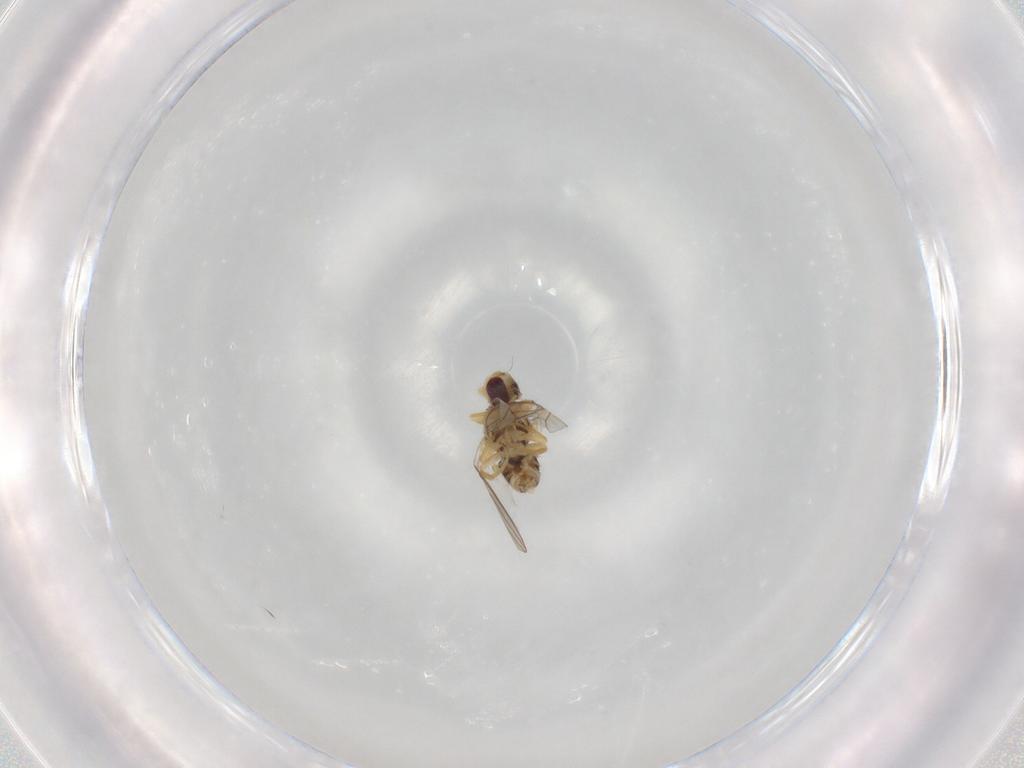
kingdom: Animalia
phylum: Arthropoda
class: Insecta
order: Diptera
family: Chyromyidae
